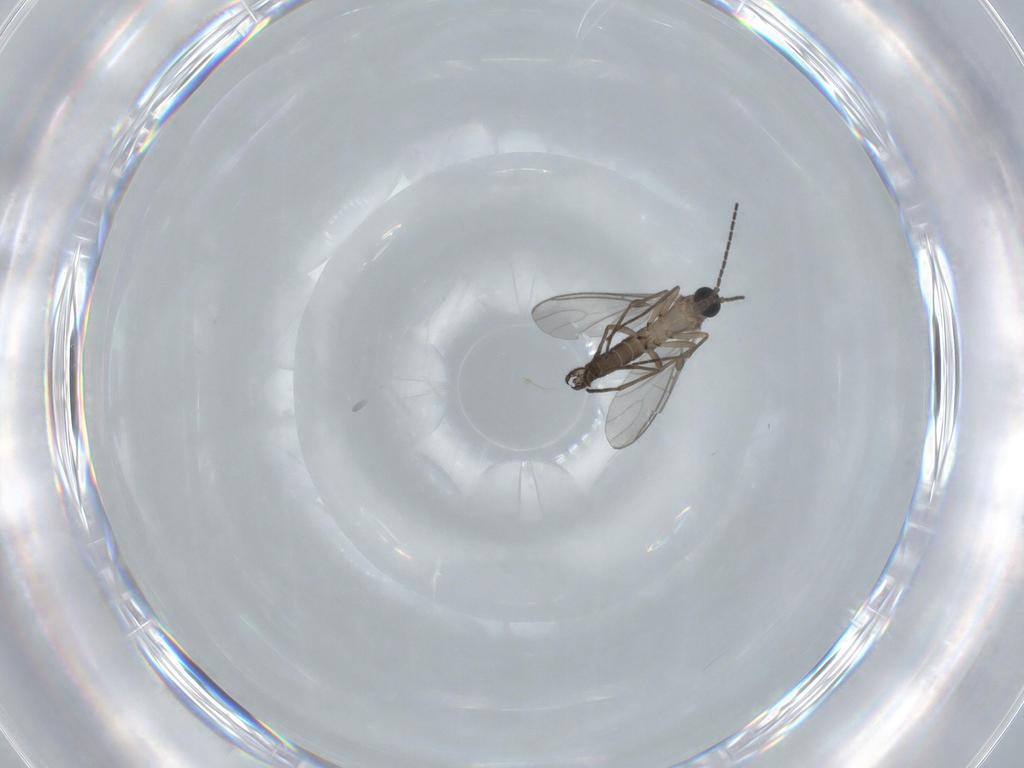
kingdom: Animalia
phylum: Arthropoda
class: Insecta
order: Diptera
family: Sciaridae
